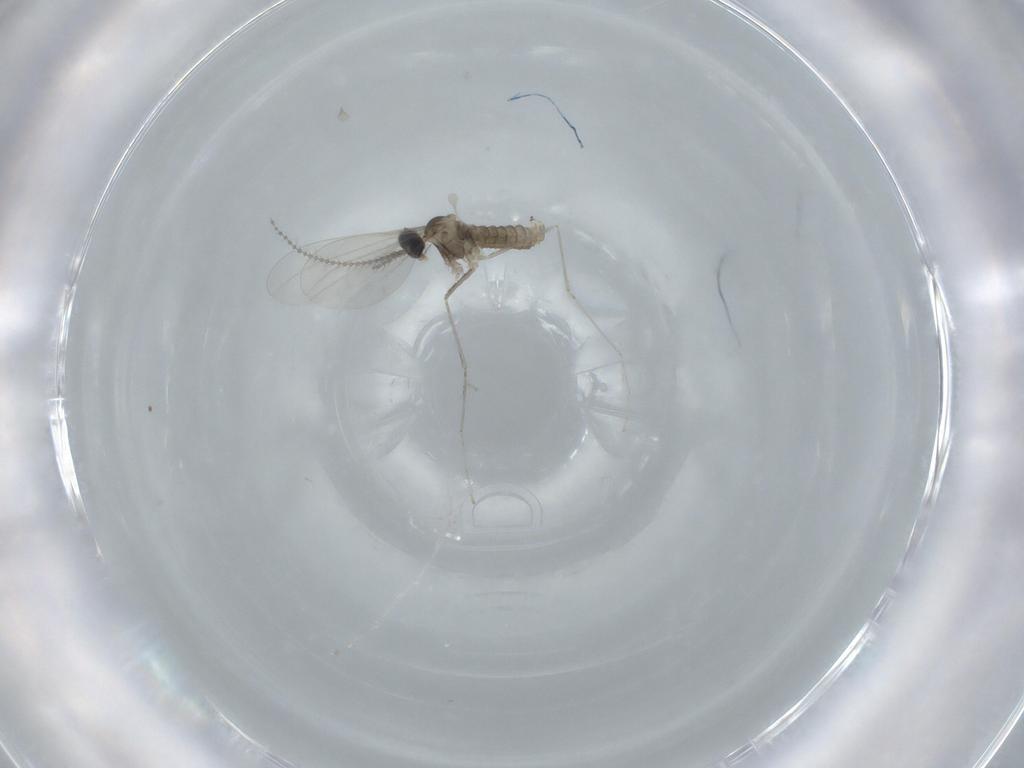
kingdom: Animalia
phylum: Arthropoda
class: Insecta
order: Diptera
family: Cecidomyiidae
